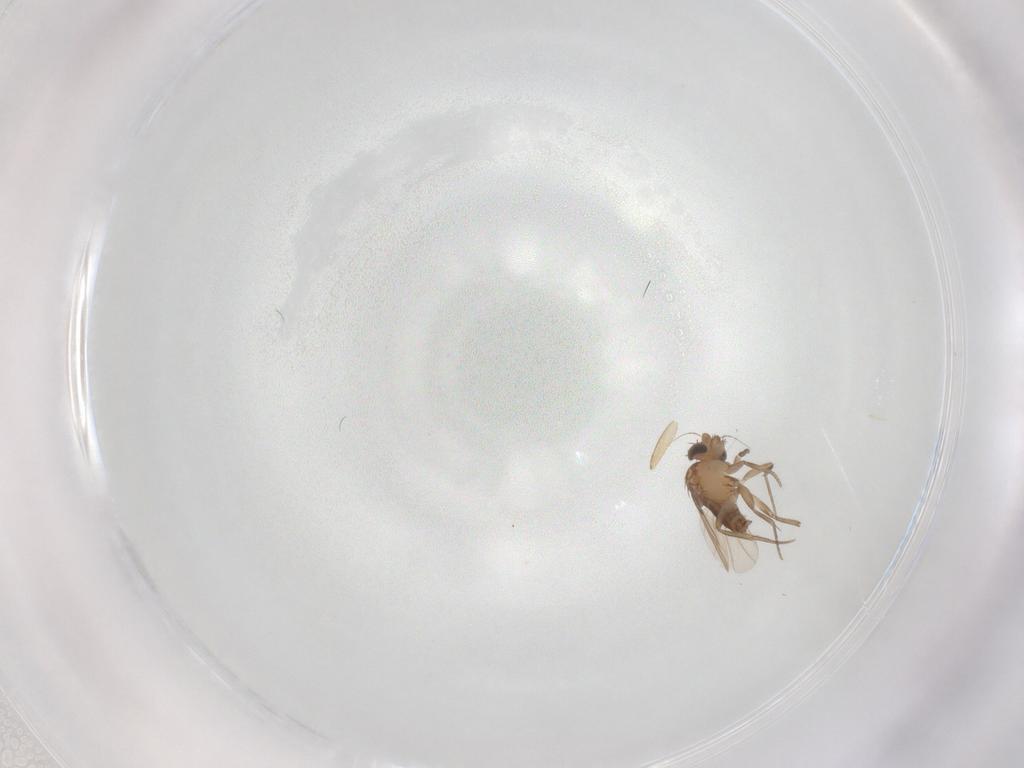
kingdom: Animalia
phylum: Arthropoda
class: Insecta
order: Diptera
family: Phoridae
